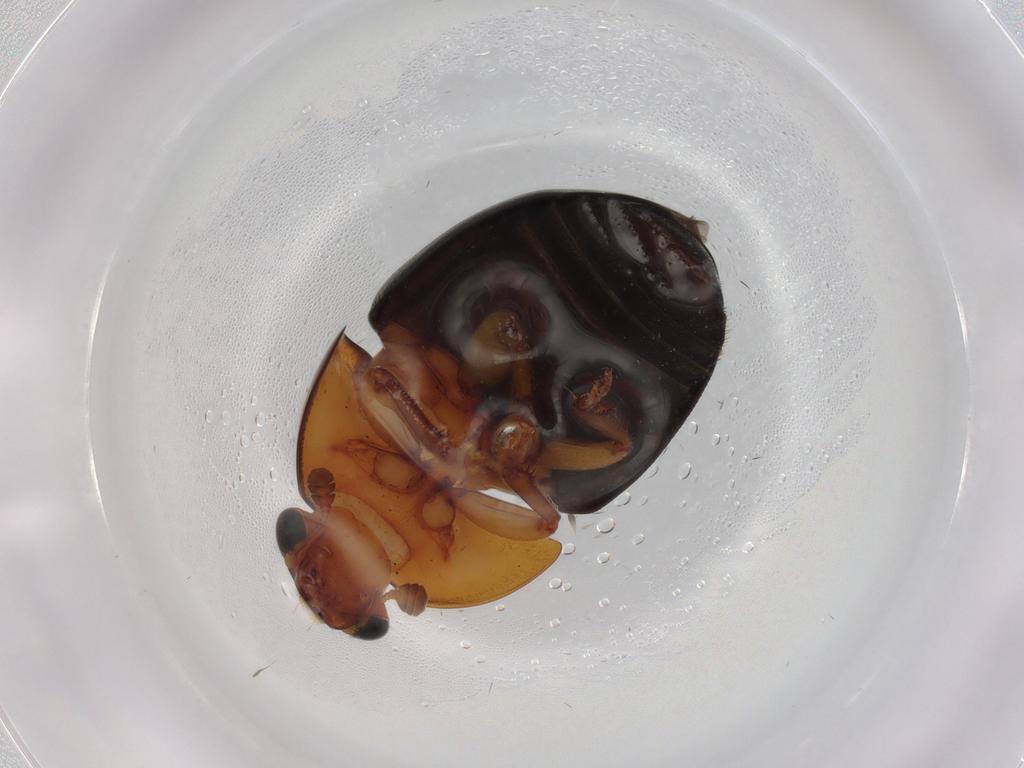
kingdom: Animalia
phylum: Arthropoda
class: Insecta
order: Coleoptera
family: Nitidulidae
